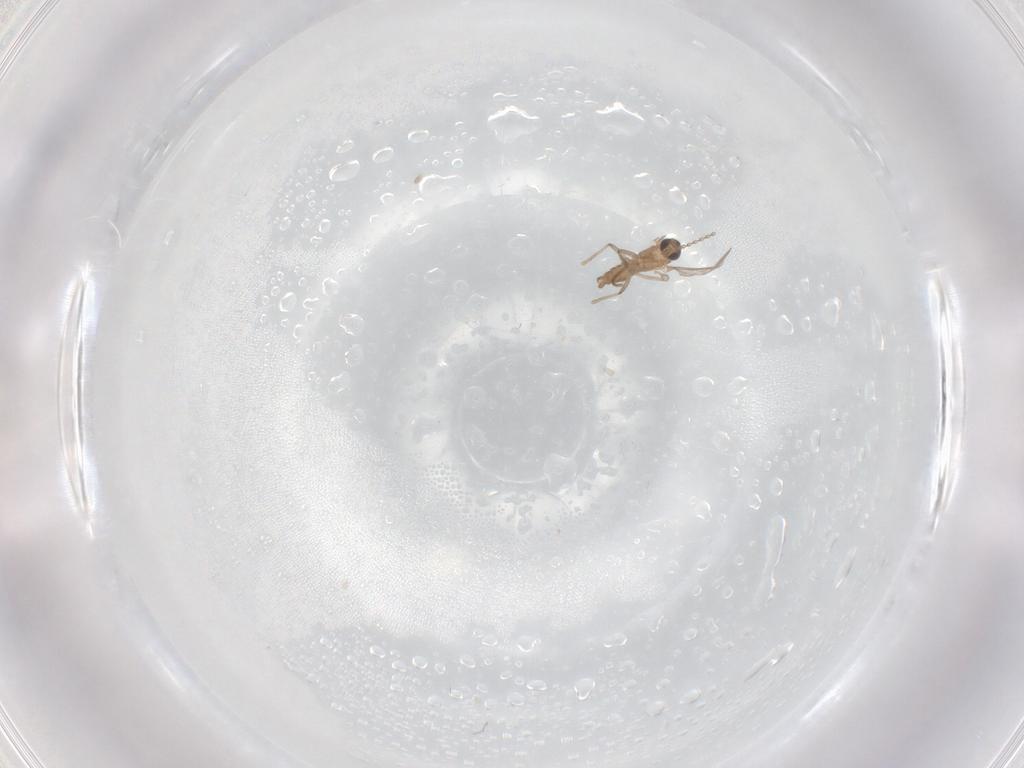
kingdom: Animalia
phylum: Arthropoda
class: Insecta
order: Diptera
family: Cecidomyiidae
